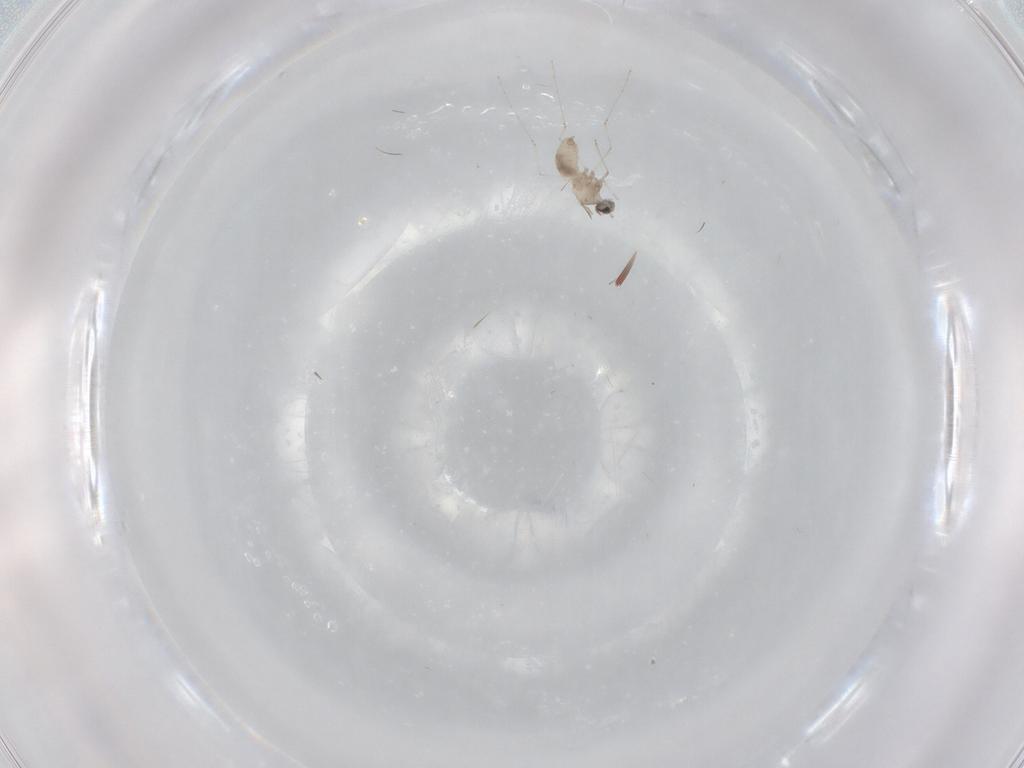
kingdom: Animalia
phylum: Arthropoda
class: Insecta
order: Diptera
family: Cecidomyiidae
